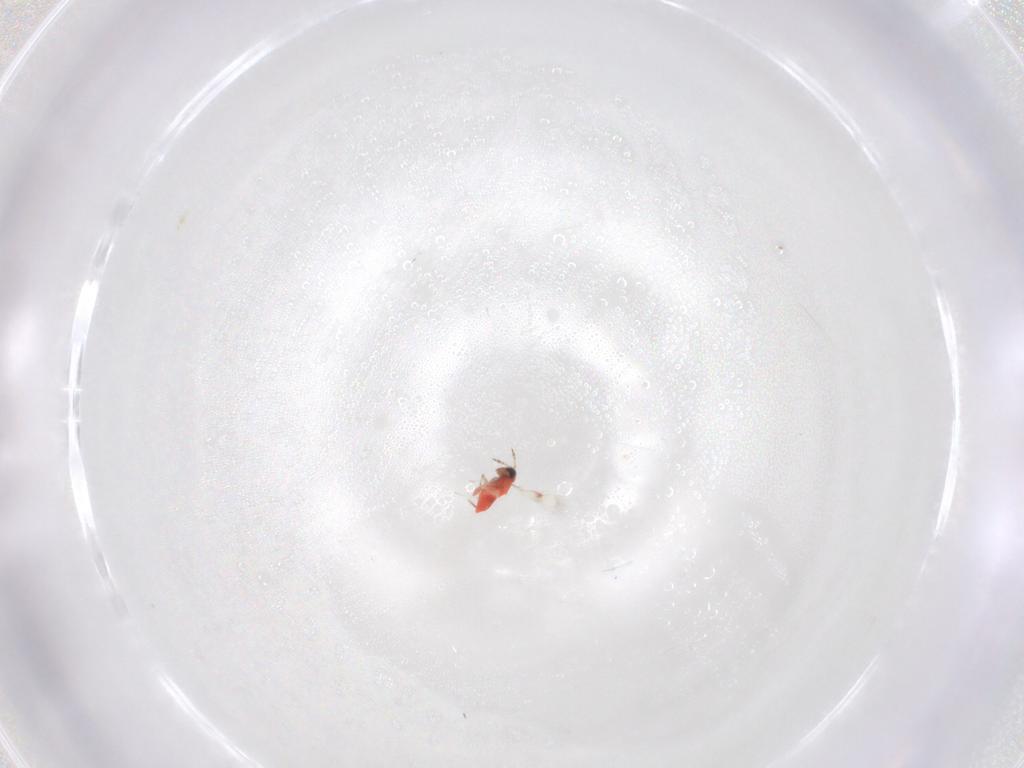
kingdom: Animalia
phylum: Arthropoda
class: Insecta
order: Hymenoptera
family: Trichogrammatidae
